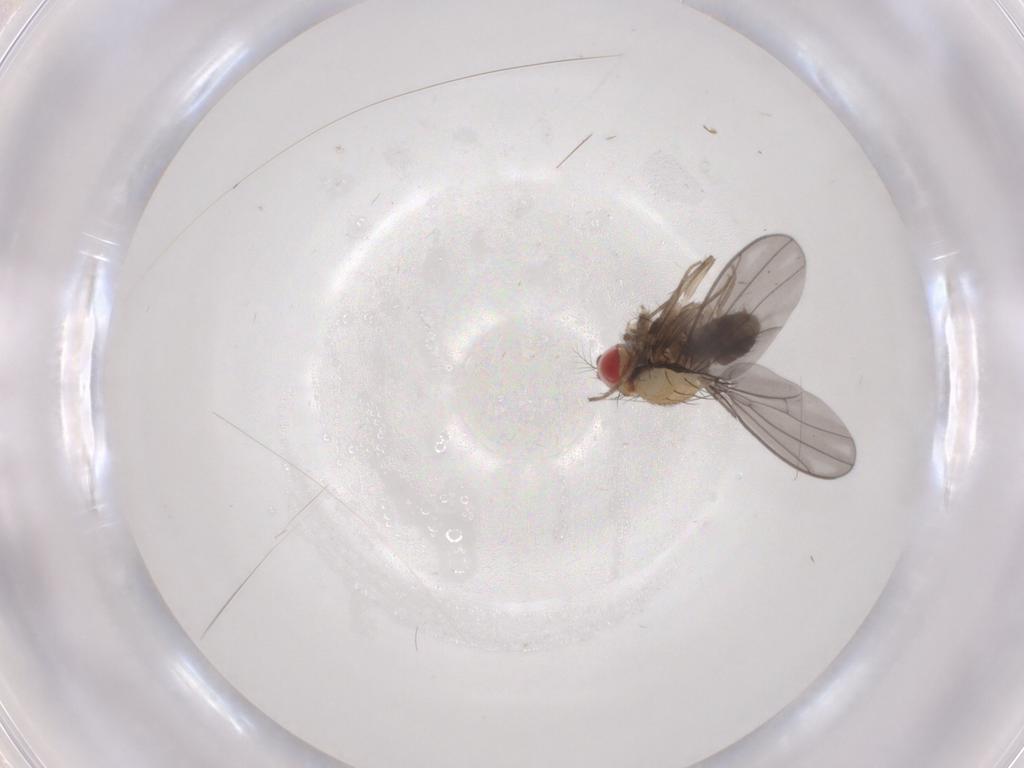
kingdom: Animalia
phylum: Arthropoda
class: Insecta
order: Diptera
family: Drosophilidae
